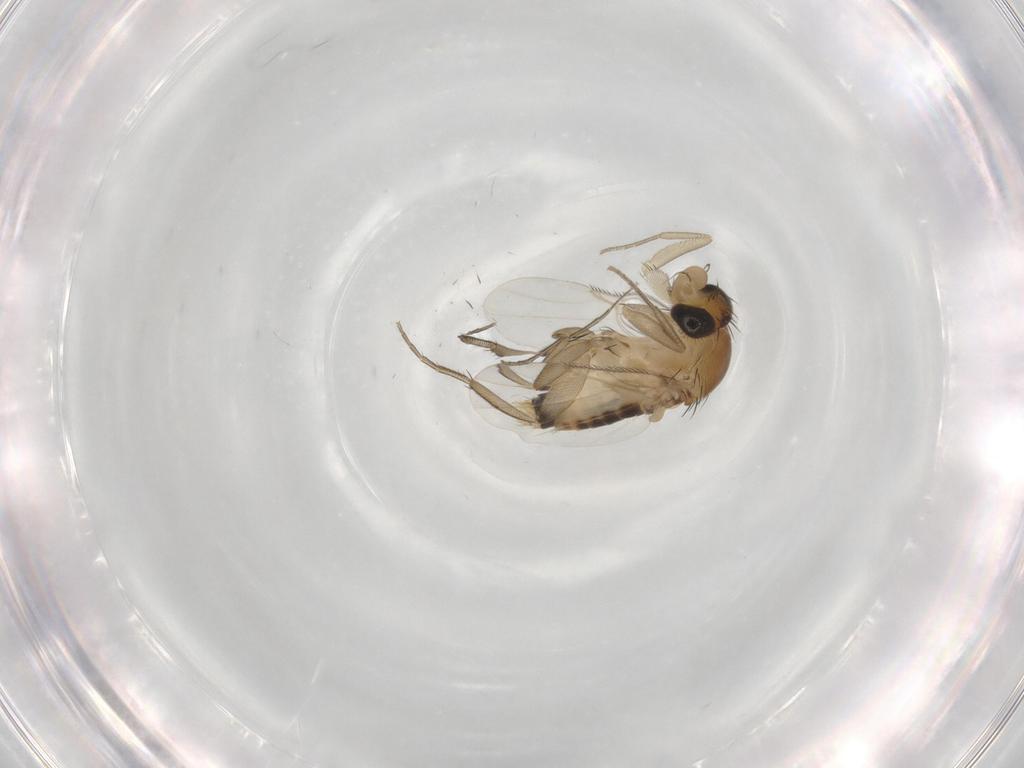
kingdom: Animalia
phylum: Arthropoda
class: Insecta
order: Diptera
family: Phoridae
